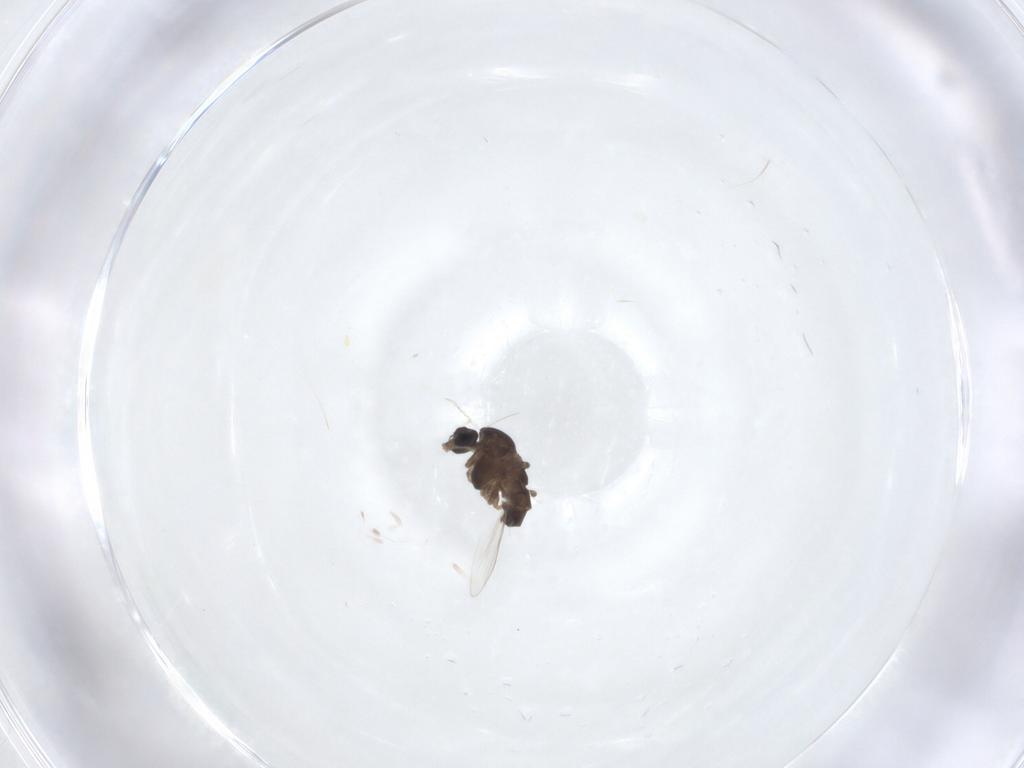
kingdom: Animalia
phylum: Arthropoda
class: Insecta
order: Diptera
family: Chironomidae
